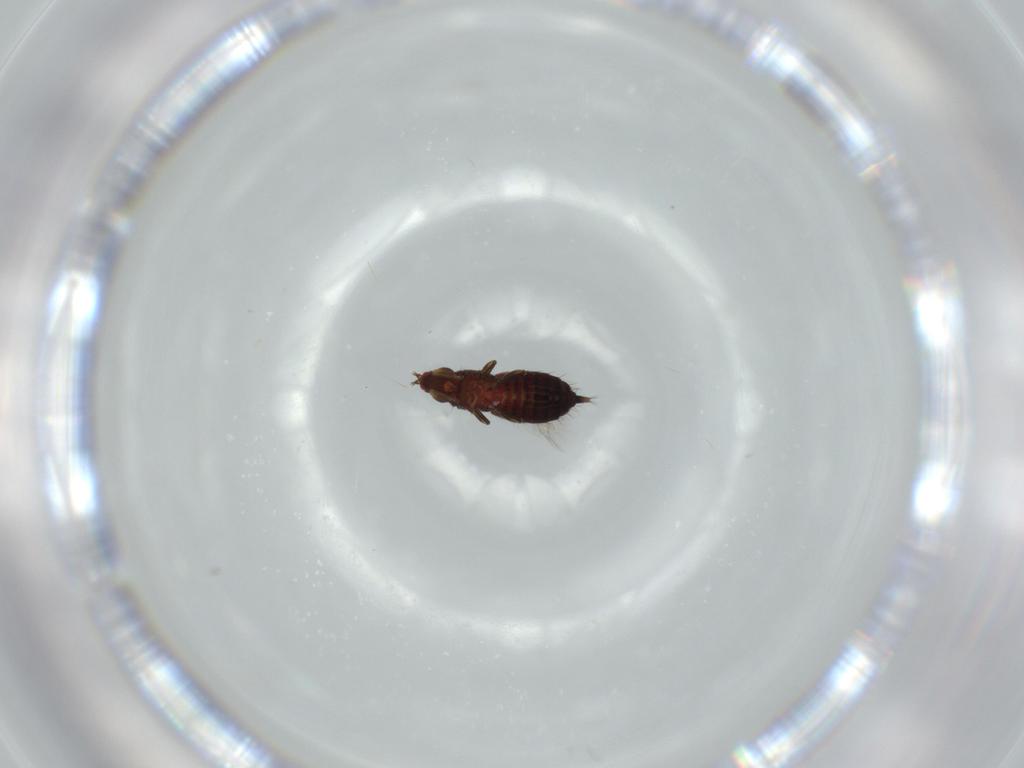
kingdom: Animalia
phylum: Arthropoda
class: Insecta
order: Thysanoptera
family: Phlaeothripidae
